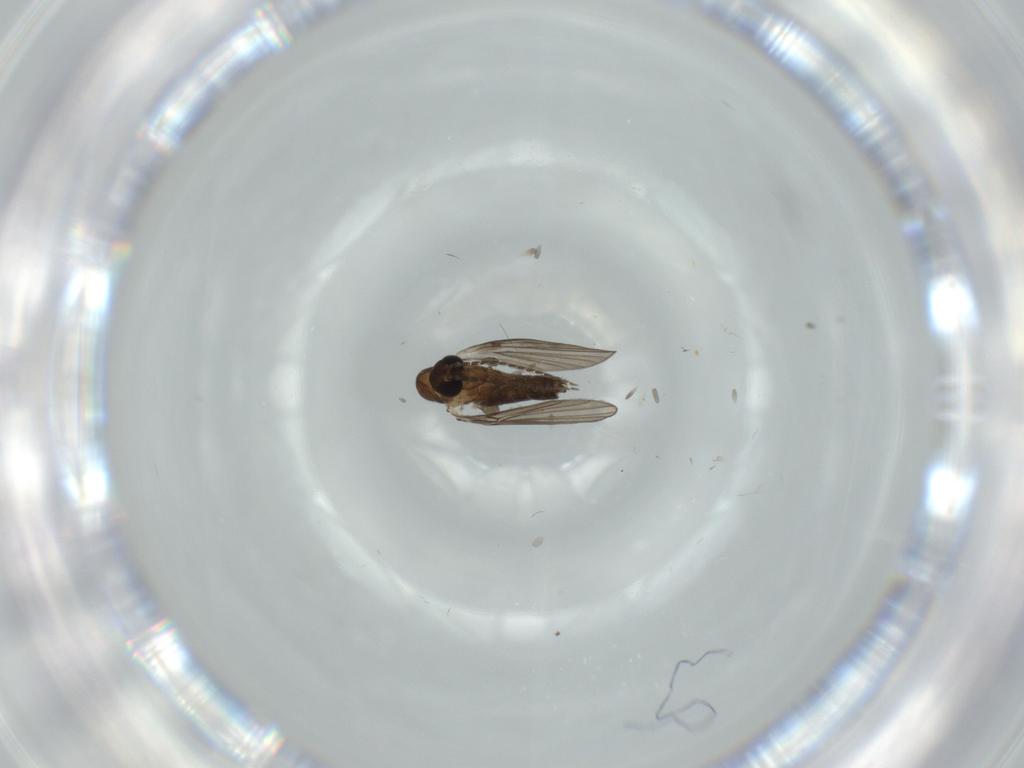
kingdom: Animalia
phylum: Arthropoda
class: Insecta
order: Diptera
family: Psychodidae
